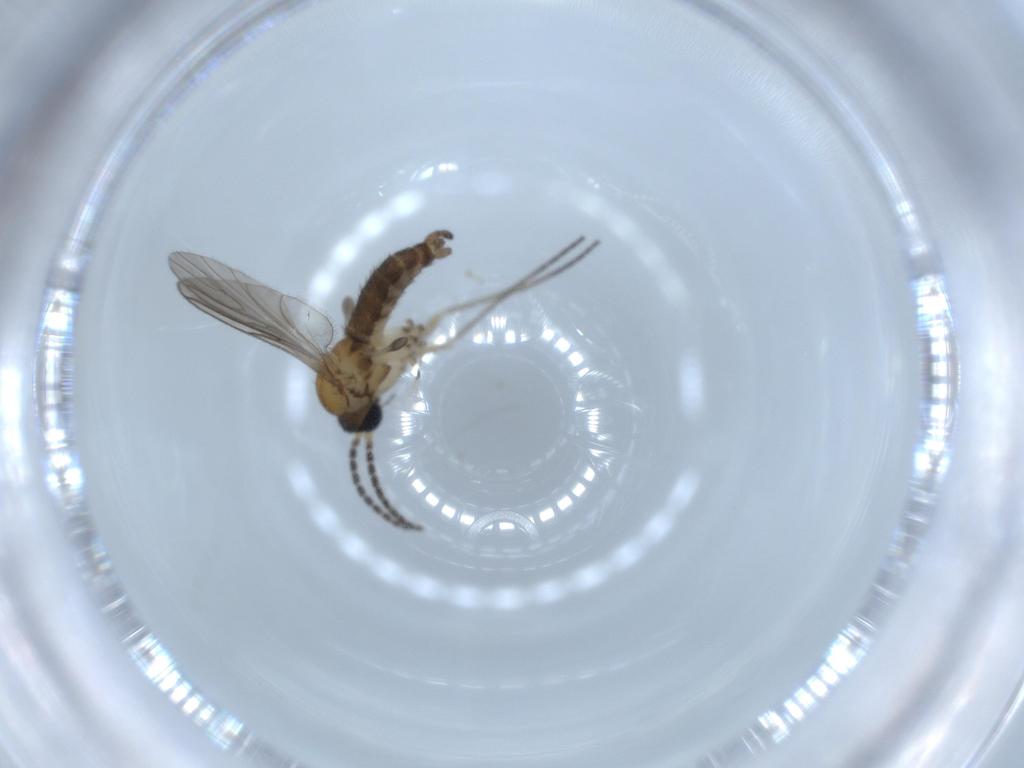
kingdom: Animalia
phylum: Arthropoda
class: Insecta
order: Diptera
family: Sciaridae
